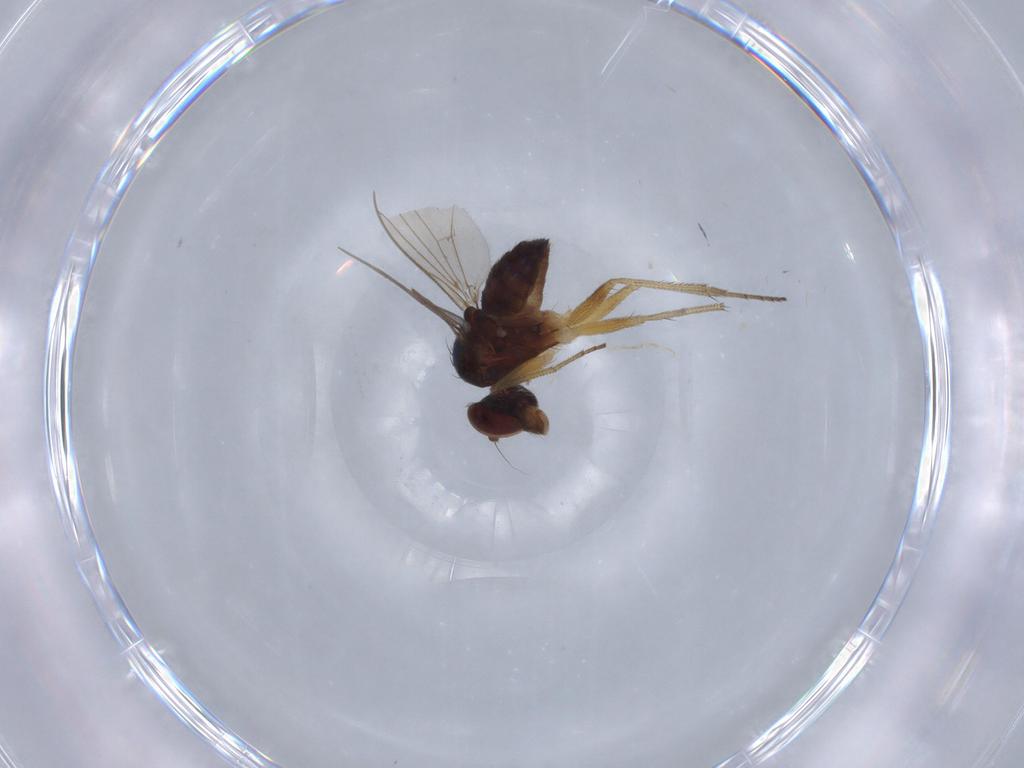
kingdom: Animalia
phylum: Arthropoda
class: Insecta
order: Diptera
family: Dolichopodidae
